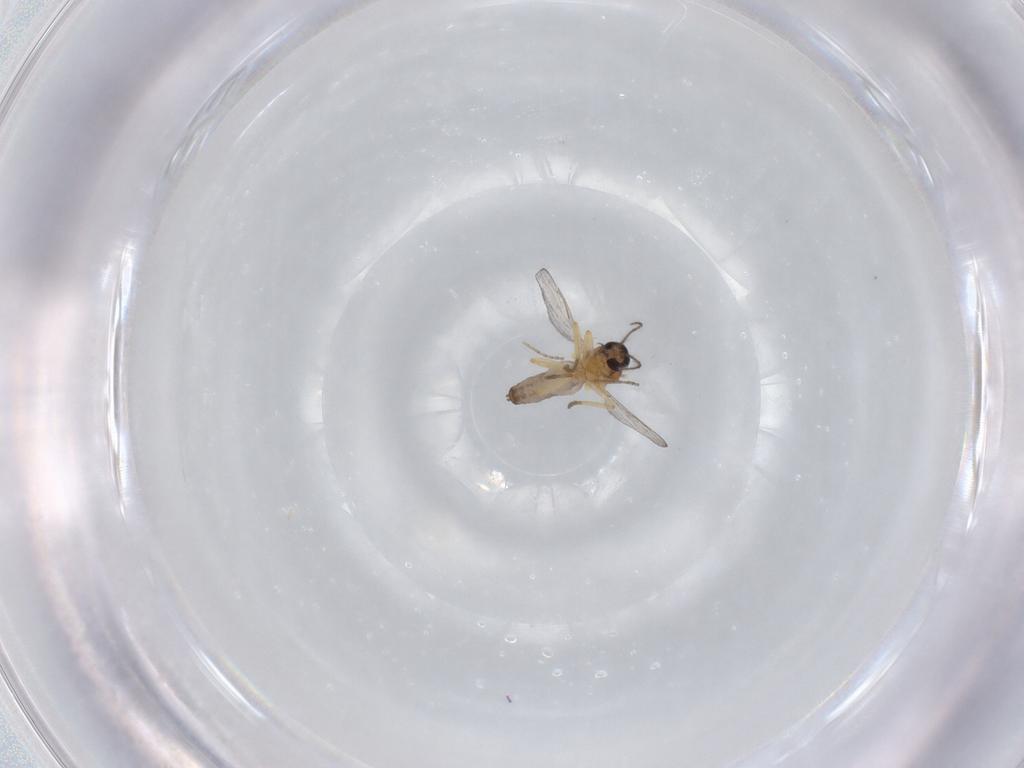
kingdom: Animalia
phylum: Arthropoda
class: Insecta
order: Diptera
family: Ceratopogonidae
